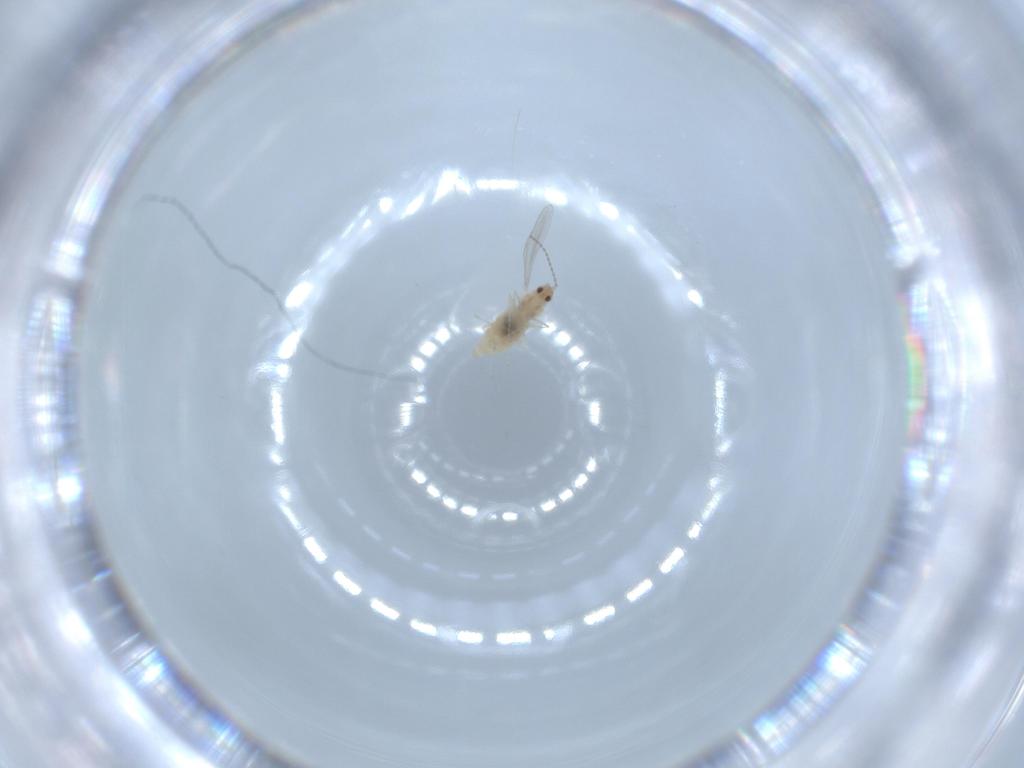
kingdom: Animalia
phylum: Arthropoda
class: Insecta
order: Diptera
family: Cecidomyiidae
